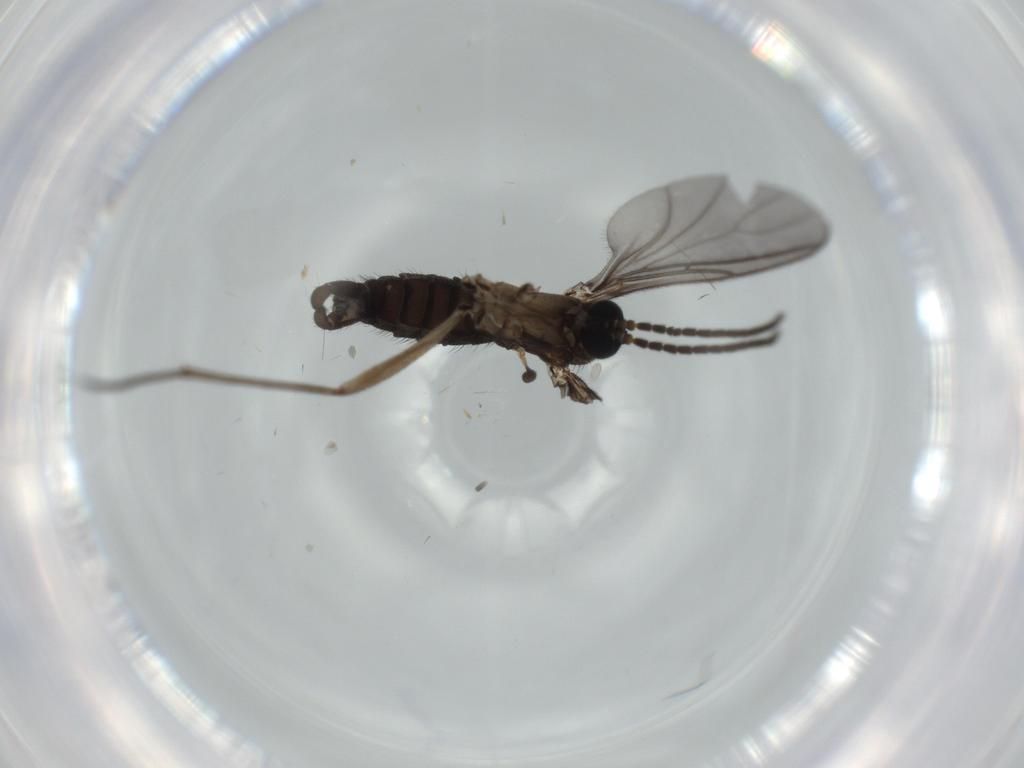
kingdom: Animalia
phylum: Arthropoda
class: Insecta
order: Diptera
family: Sciaridae
